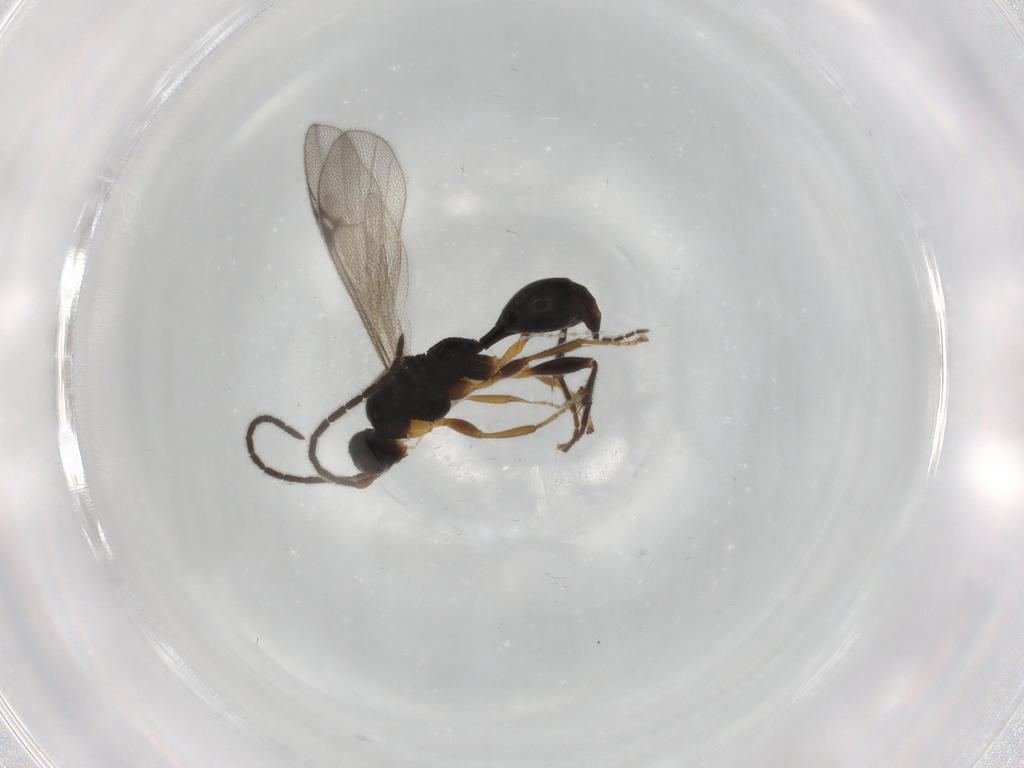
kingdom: Animalia
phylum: Arthropoda
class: Insecta
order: Hymenoptera
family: Proctotrupidae
